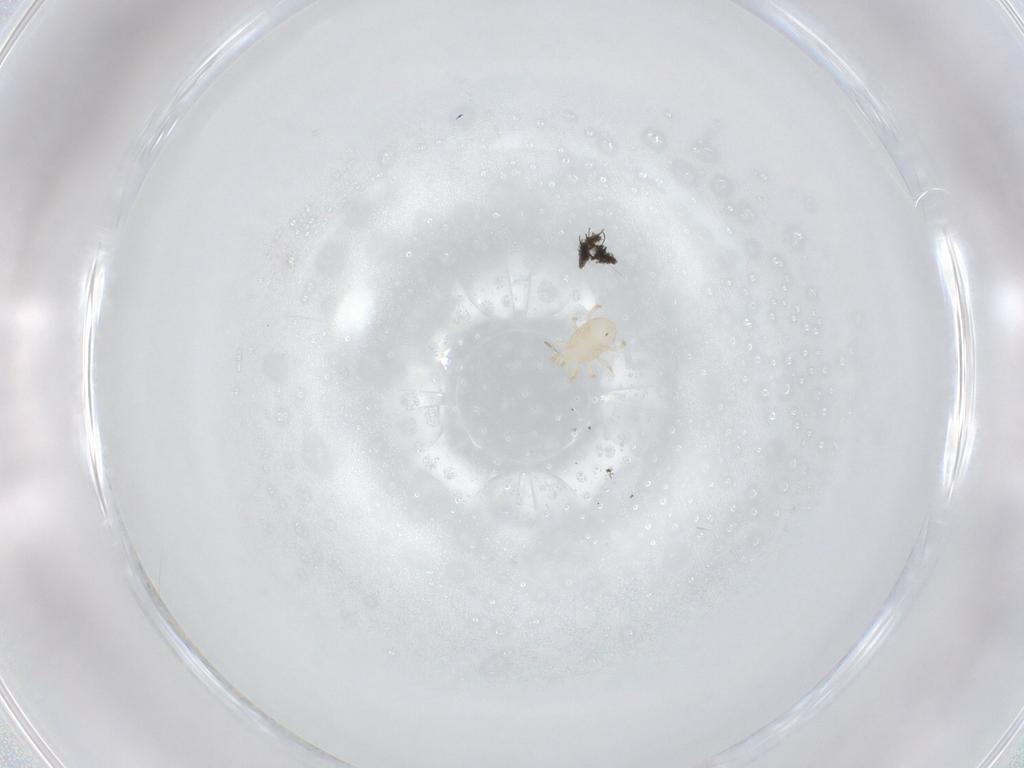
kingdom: Animalia
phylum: Arthropoda
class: Arachnida
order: Mesostigmata
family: Melicharidae
